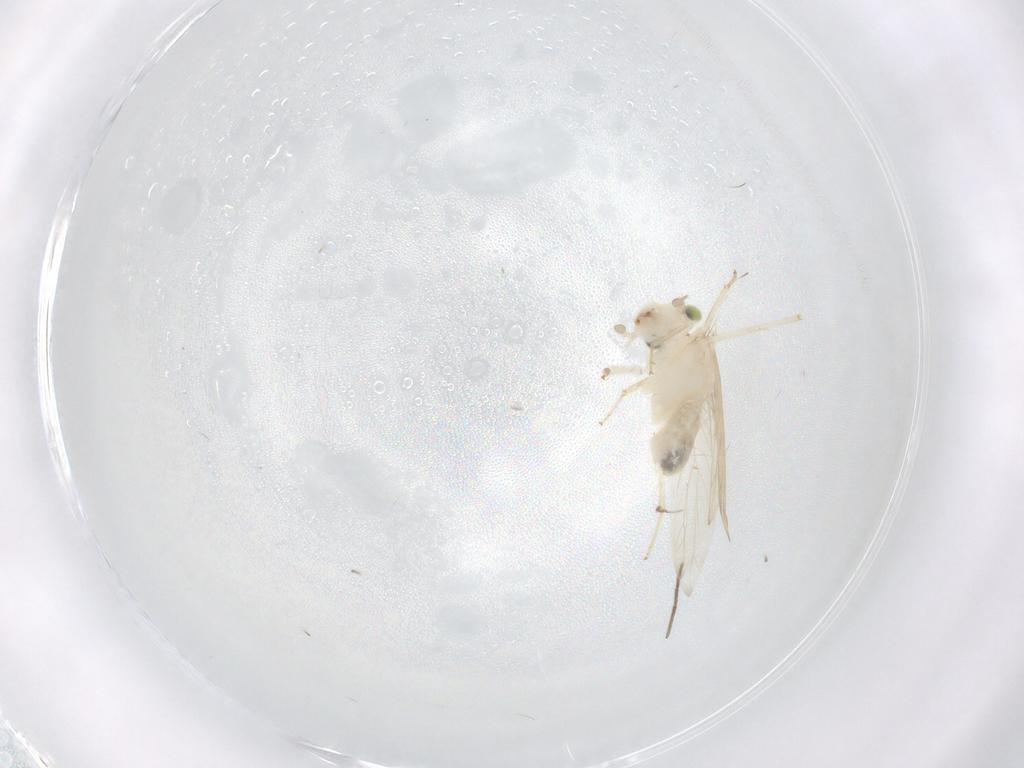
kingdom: Animalia
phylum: Arthropoda
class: Insecta
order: Psocodea
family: Lepidopsocidae
